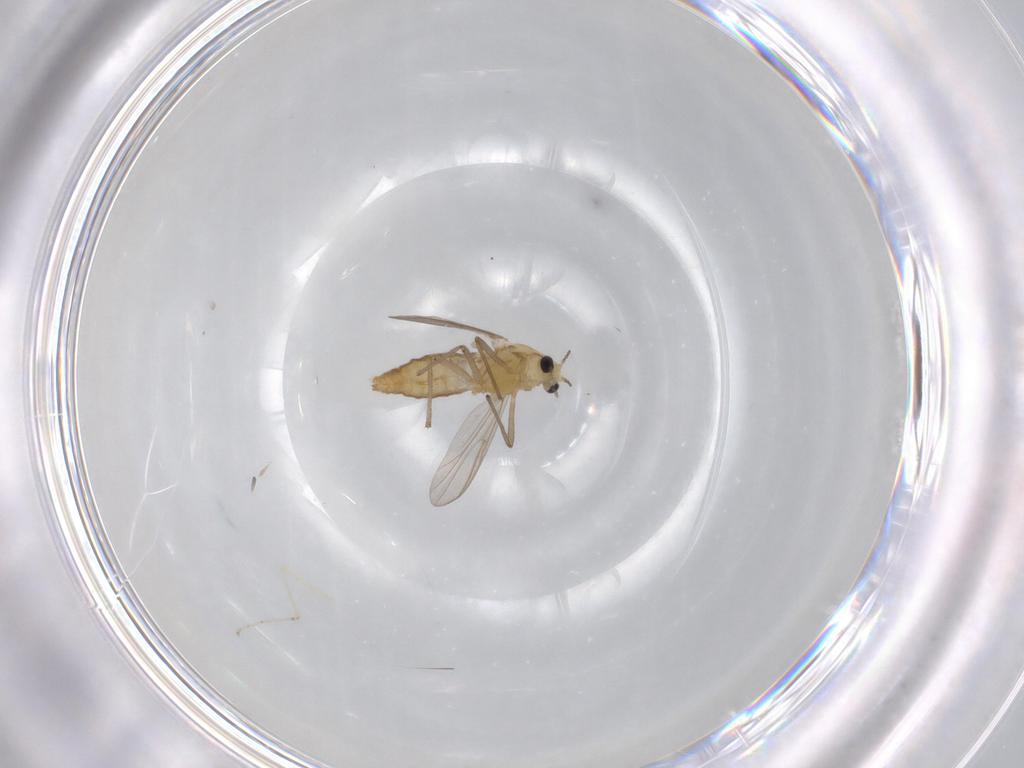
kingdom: Animalia
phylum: Arthropoda
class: Insecta
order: Diptera
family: Chironomidae
